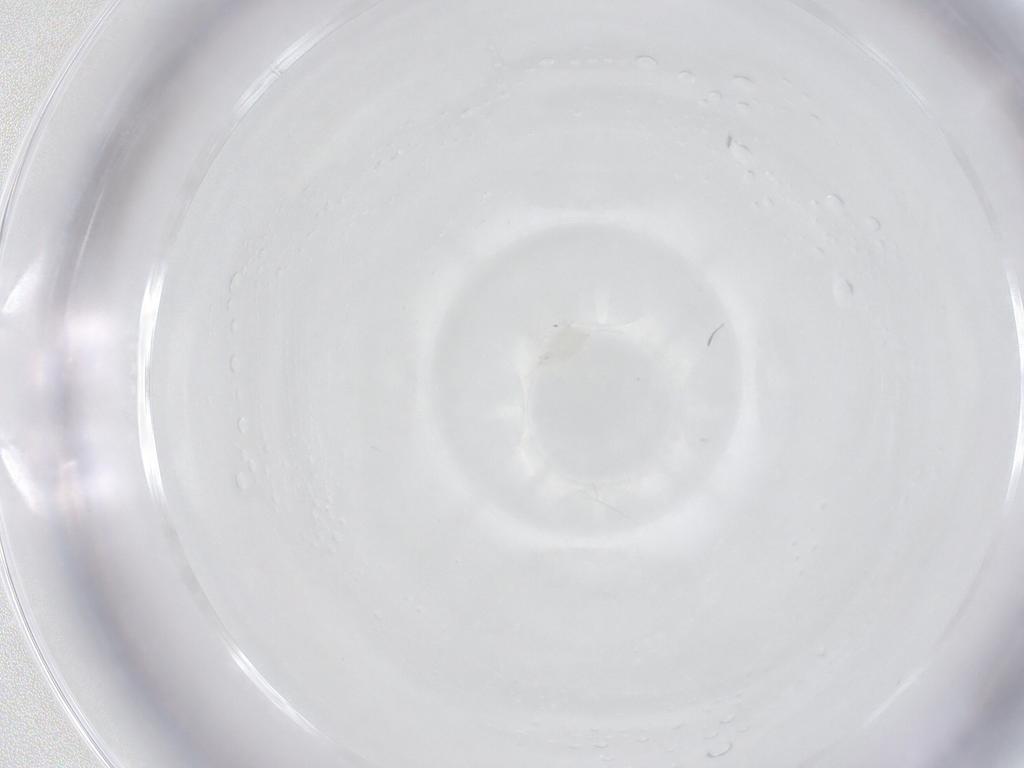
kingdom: Animalia
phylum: Arthropoda
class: Arachnida
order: Mesostigmata
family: Phytoseiidae
